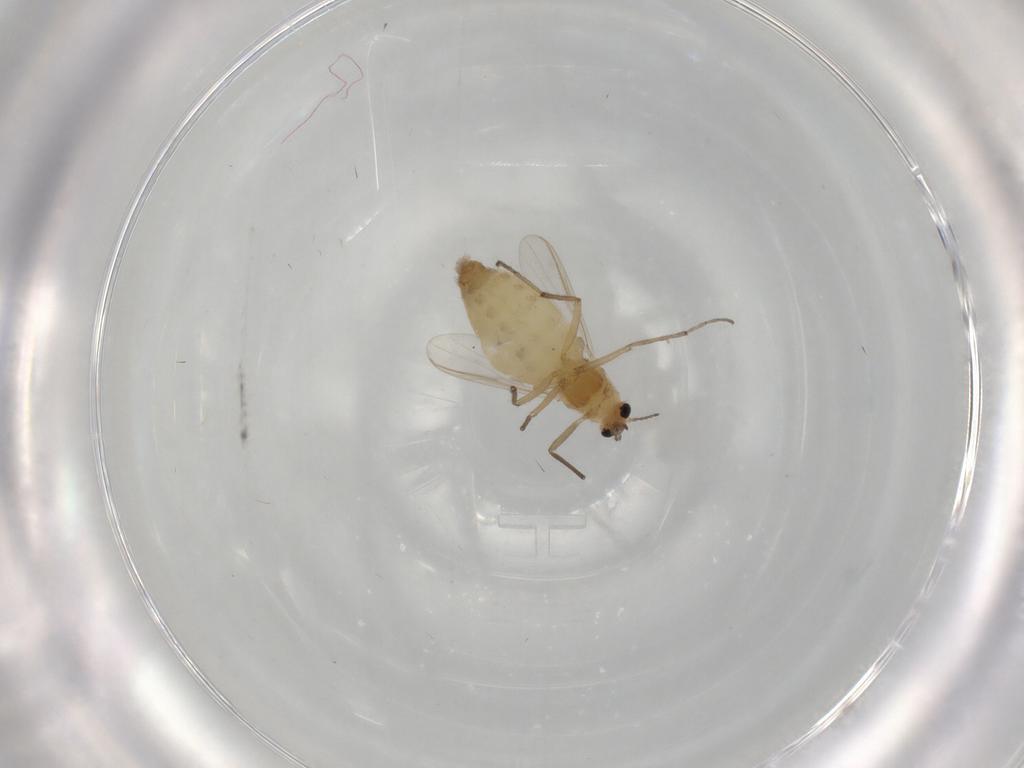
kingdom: Animalia
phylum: Arthropoda
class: Insecta
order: Diptera
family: Chironomidae
